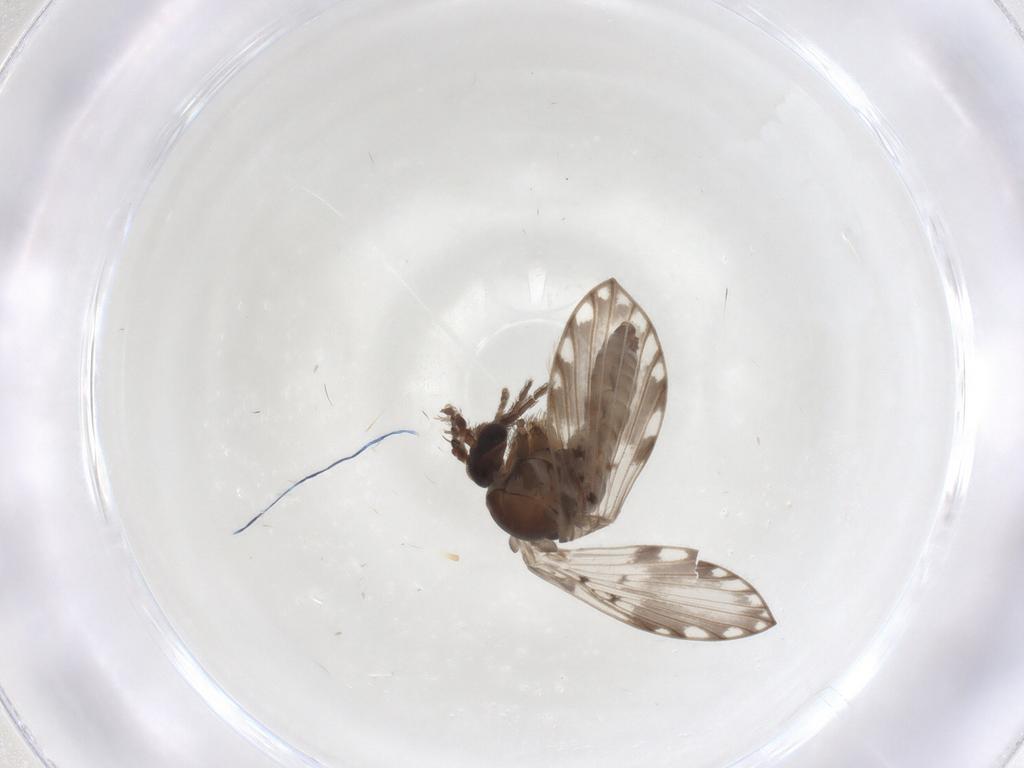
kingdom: Animalia
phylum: Arthropoda
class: Insecta
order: Diptera
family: Psychodidae
